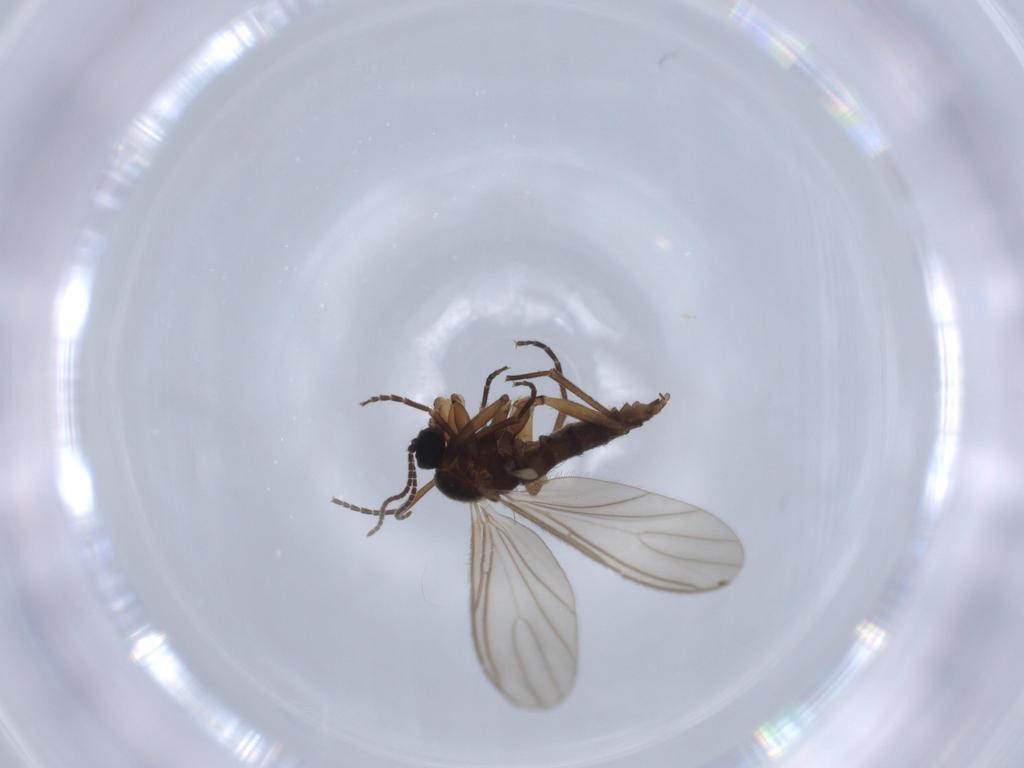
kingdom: Animalia
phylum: Arthropoda
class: Insecta
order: Diptera
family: Sciaridae
